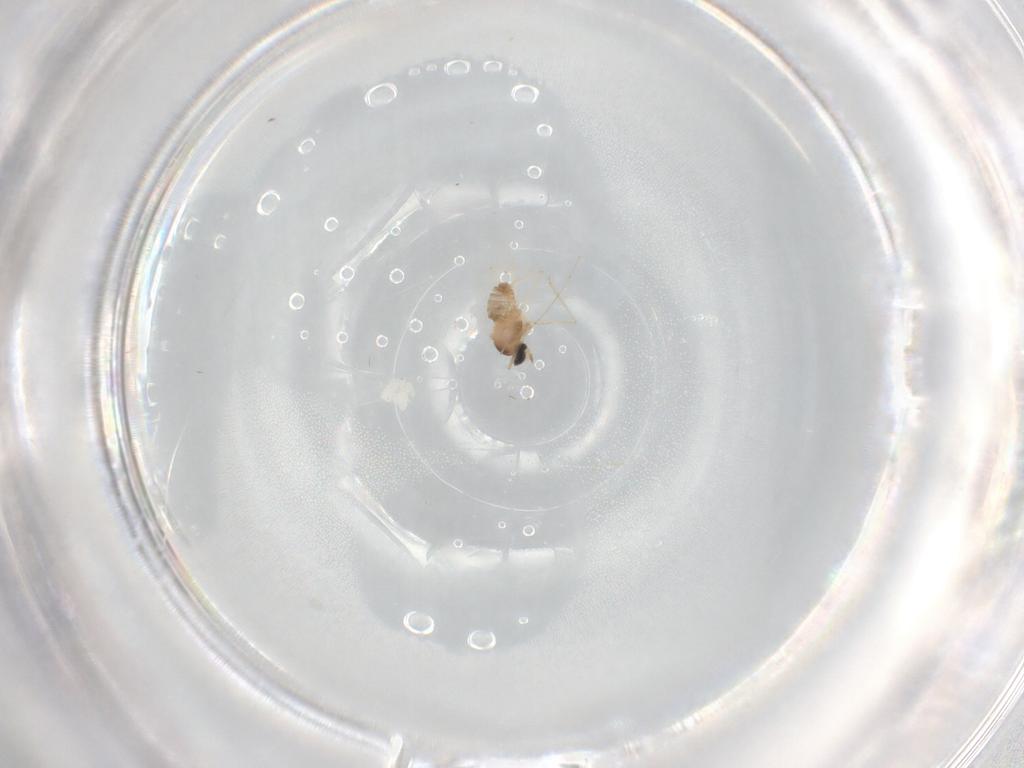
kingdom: Animalia
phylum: Arthropoda
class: Insecta
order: Diptera
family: Cecidomyiidae
